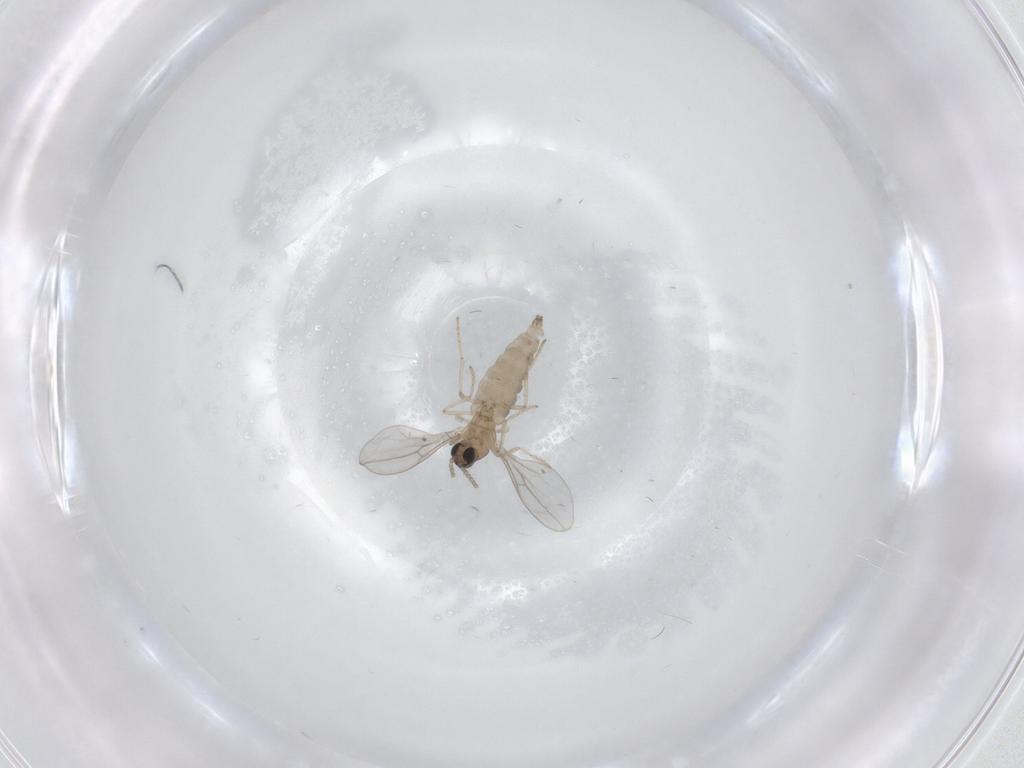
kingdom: Animalia
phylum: Arthropoda
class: Insecta
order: Diptera
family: Cecidomyiidae
